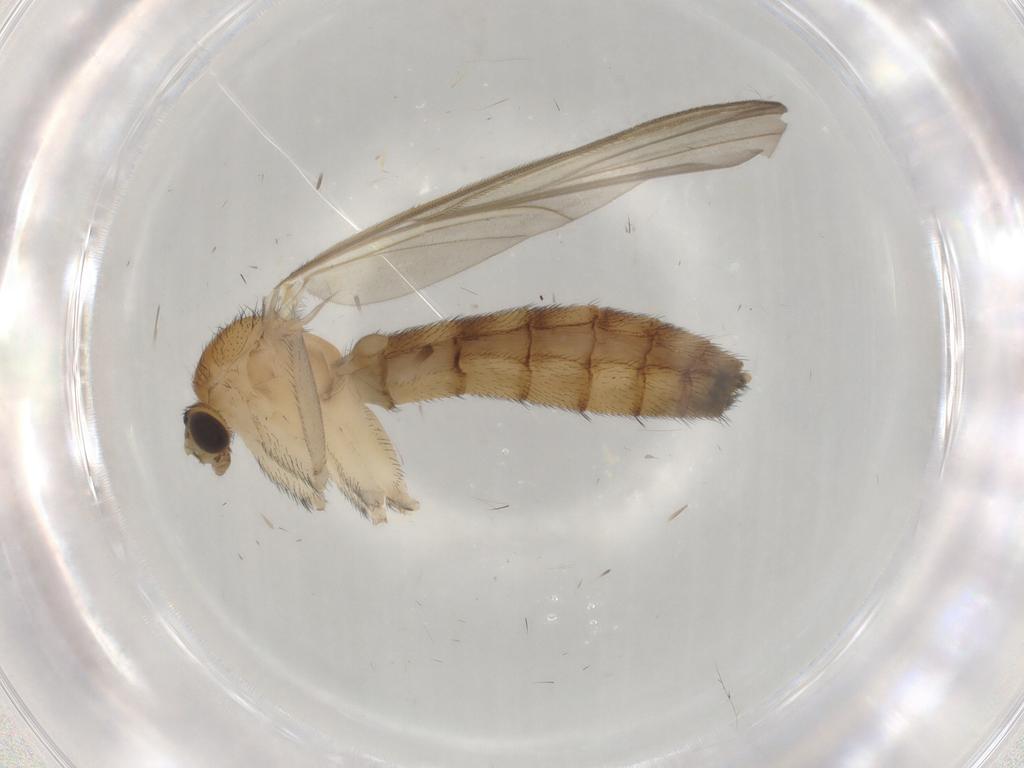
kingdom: Animalia
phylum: Arthropoda
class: Insecta
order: Diptera
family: Keroplatidae
